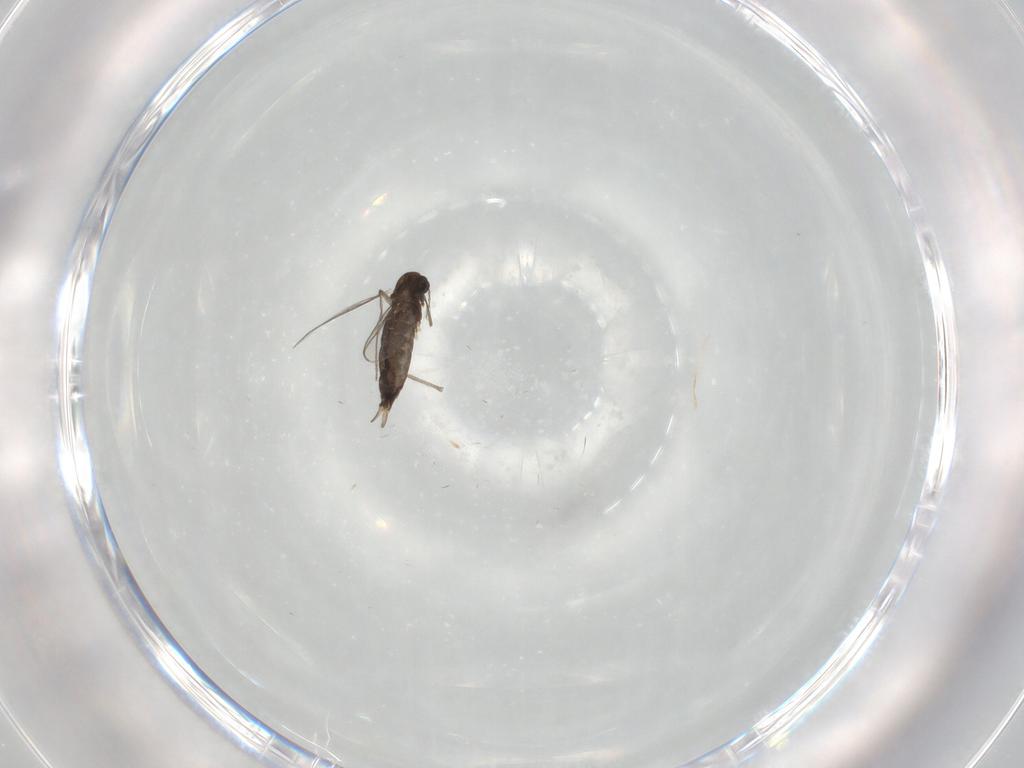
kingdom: Animalia
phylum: Arthropoda
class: Insecta
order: Diptera
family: Chironomidae
